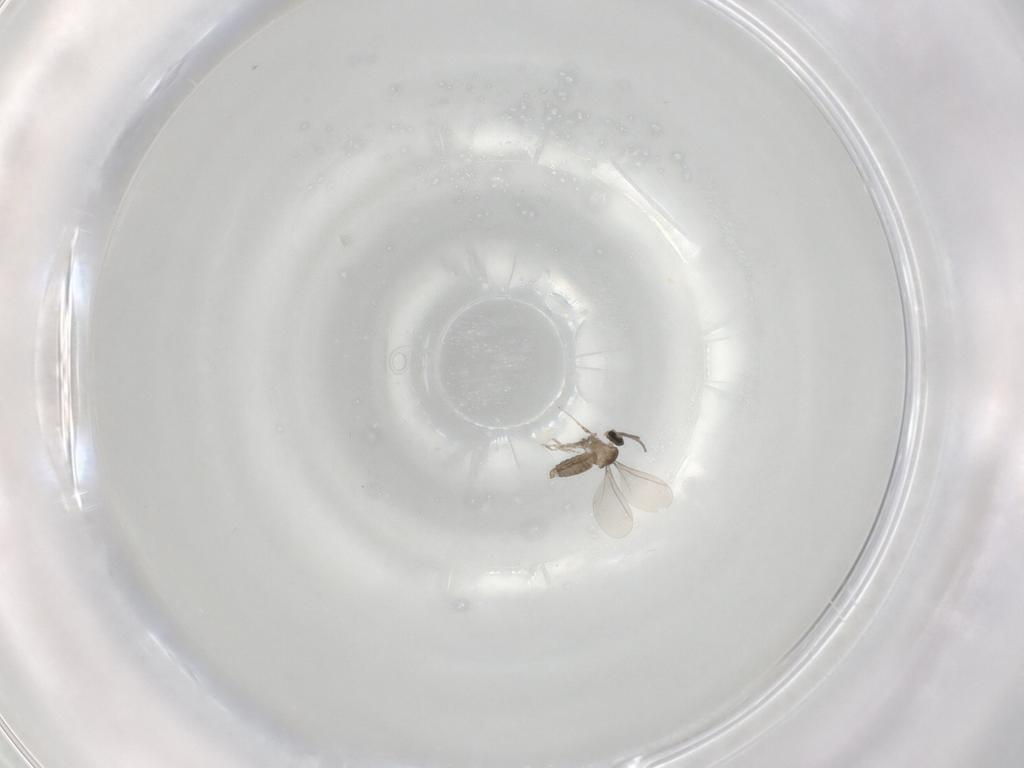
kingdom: Animalia
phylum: Arthropoda
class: Insecta
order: Diptera
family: Cecidomyiidae
